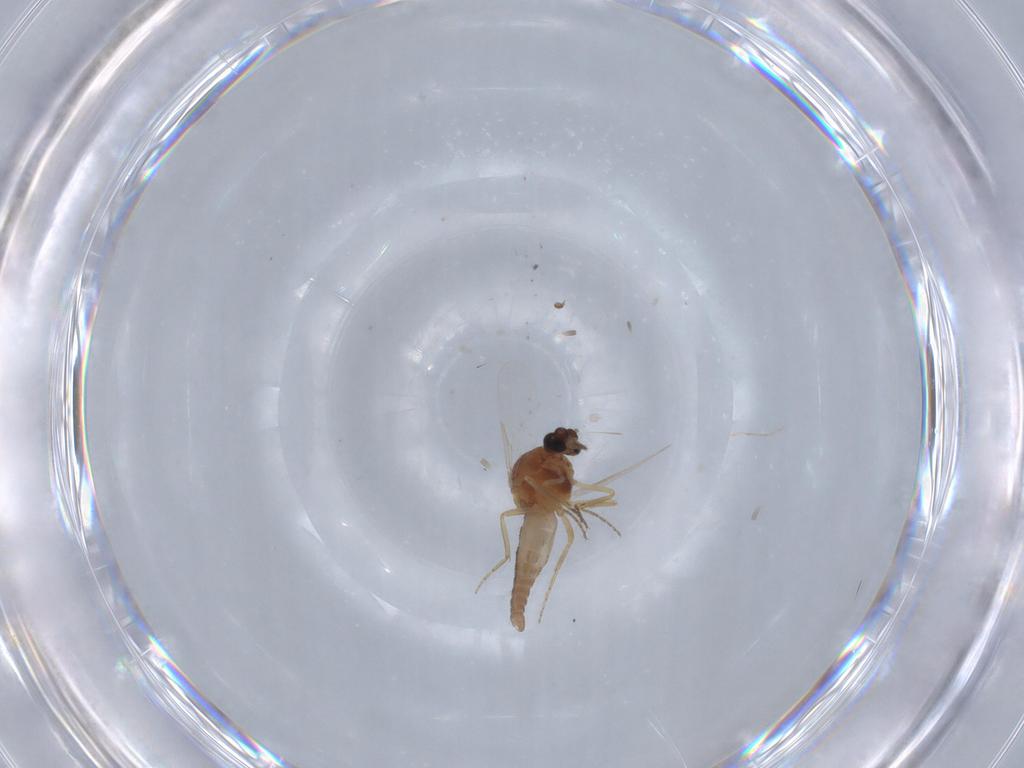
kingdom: Animalia
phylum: Arthropoda
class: Insecta
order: Diptera
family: Ceratopogonidae
